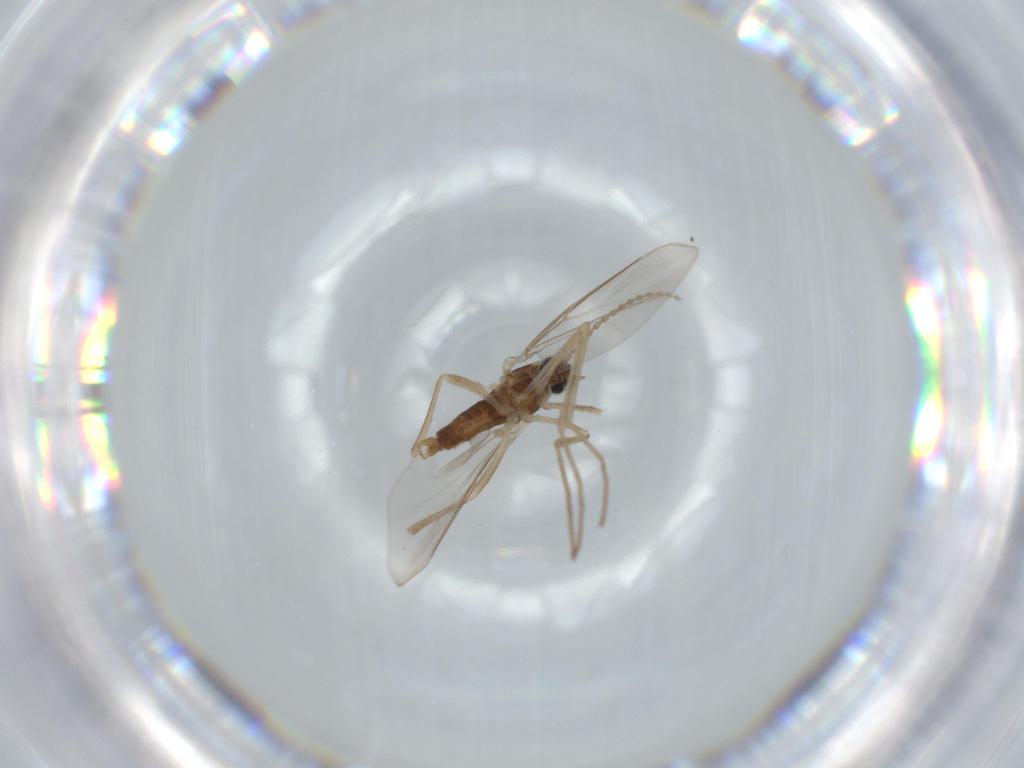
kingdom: Animalia
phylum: Arthropoda
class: Insecta
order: Diptera
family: Cecidomyiidae
